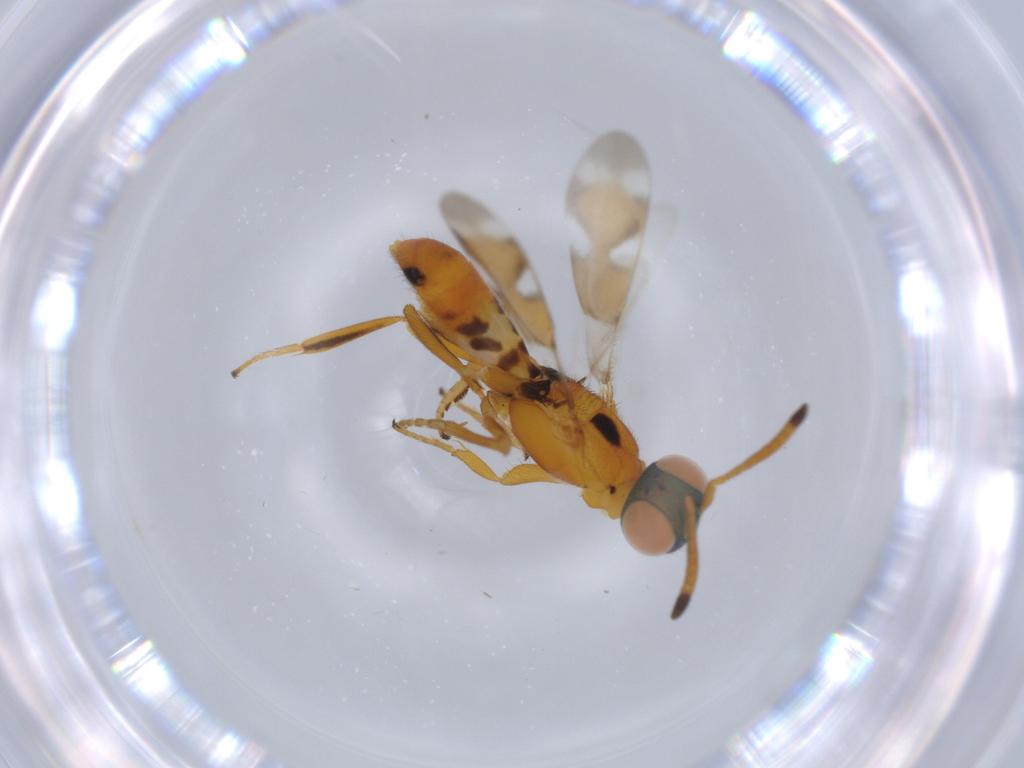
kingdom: Animalia
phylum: Arthropoda
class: Insecta
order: Hymenoptera
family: Eupelmidae
